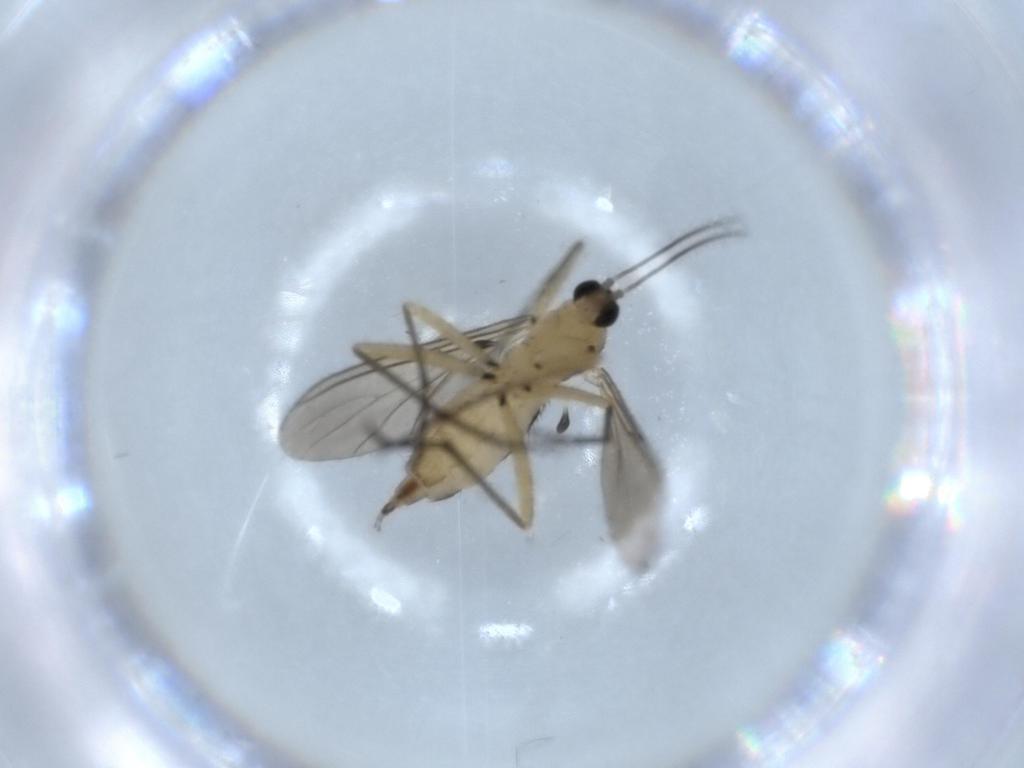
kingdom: Animalia
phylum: Arthropoda
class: Insecta
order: Diptera
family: Sciaridae
